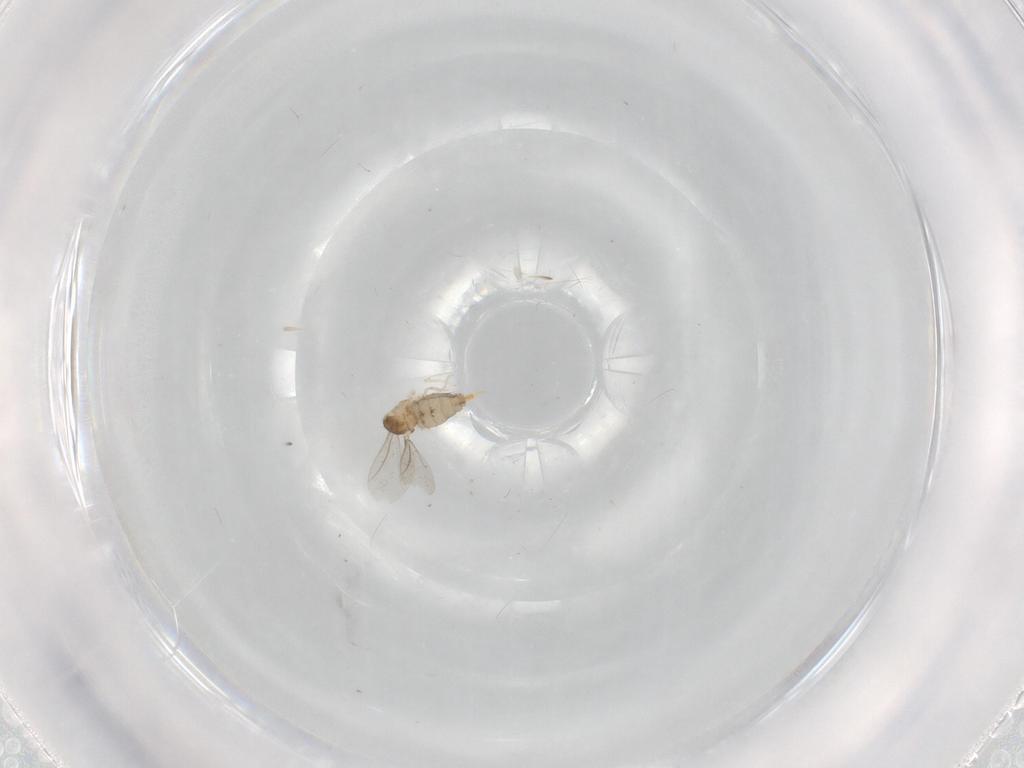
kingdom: Animalia
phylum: Arthropoda
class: Insecta
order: Diptera
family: Cecidomyiidae
